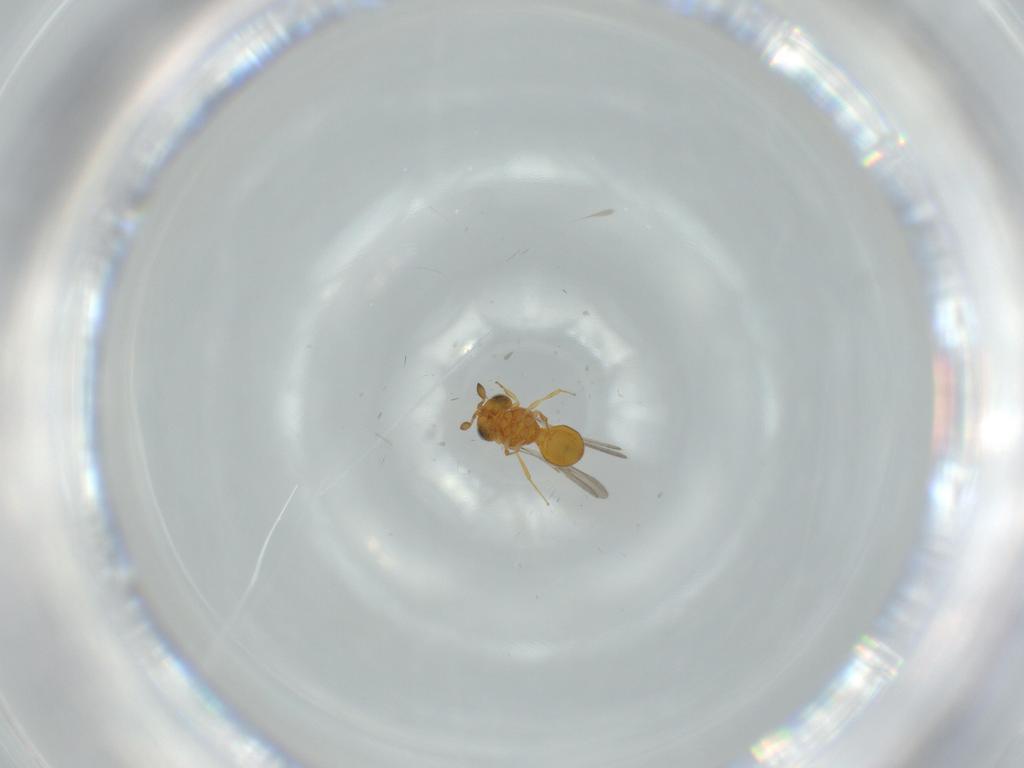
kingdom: Animalia
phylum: Arthropoda
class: Insecta
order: Hymenoptera
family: Scelionidae
